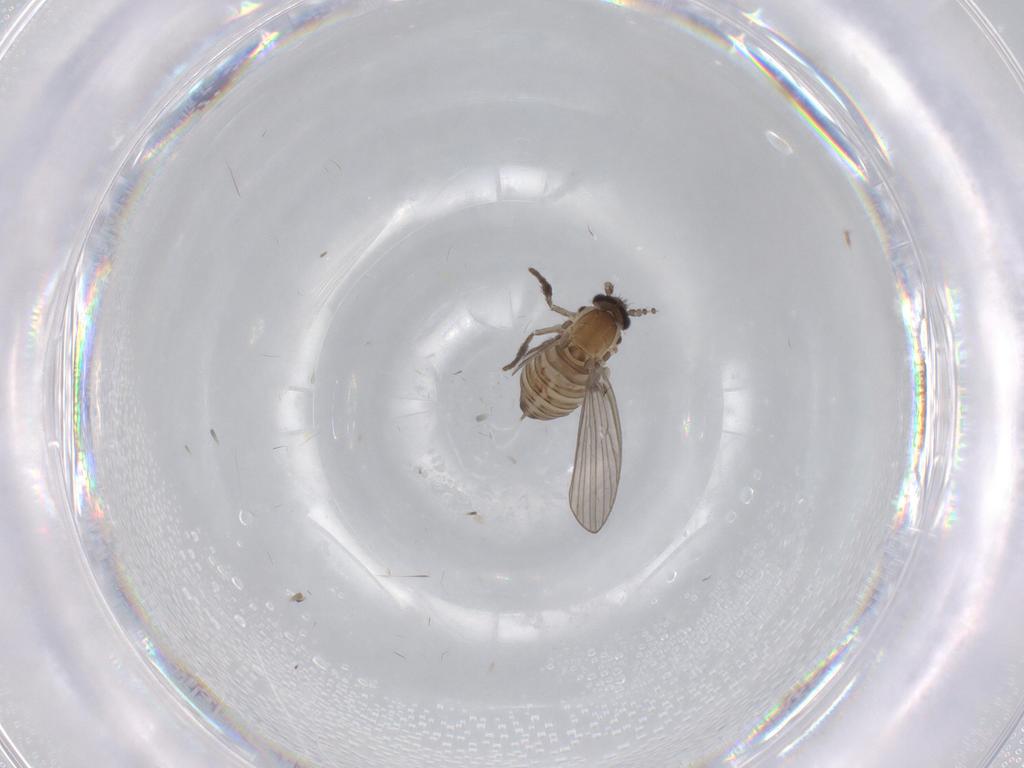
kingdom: Animalia
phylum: Arthropoda
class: Insecta
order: Diptera
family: Psychodidae
